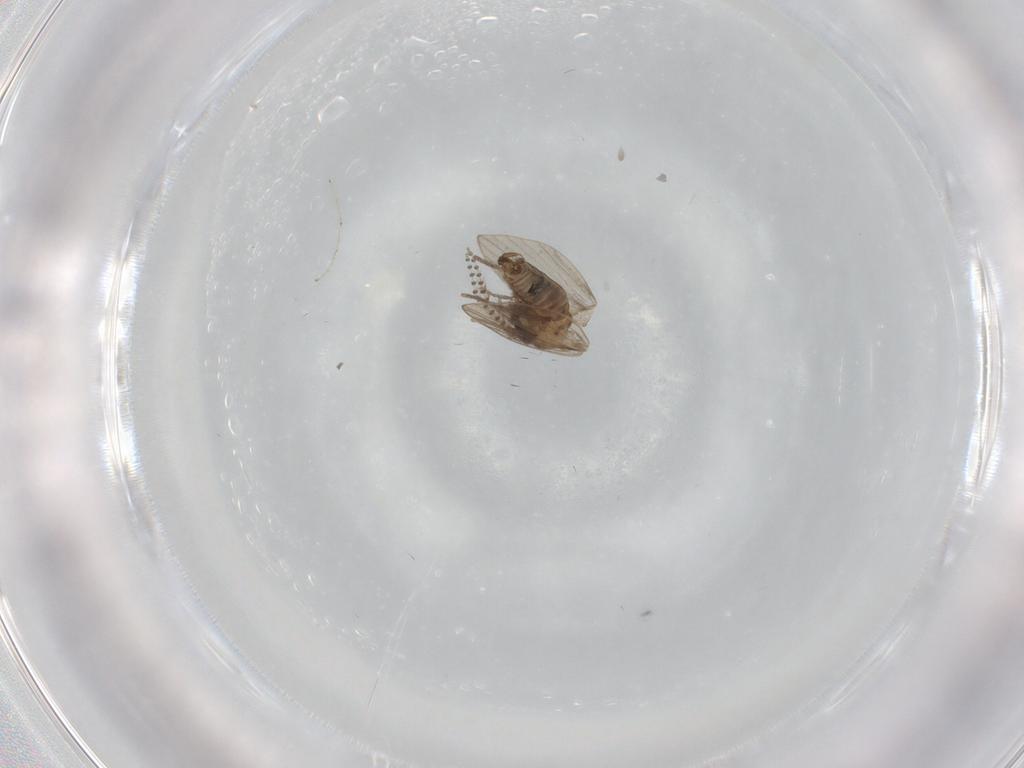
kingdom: Animalia
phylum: Arthropoda
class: Insecta
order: Diptera
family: Psychodidae
